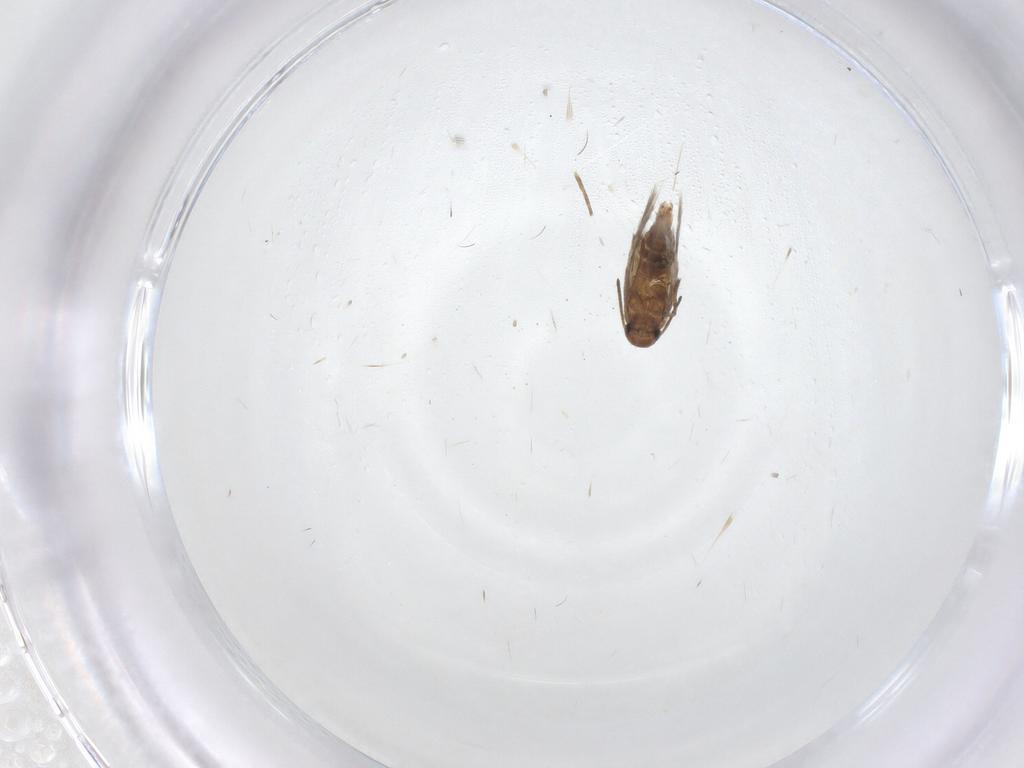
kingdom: Animalia
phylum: Arthropoda
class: Insecta
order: Lepidoptera
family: Heliozelidae
